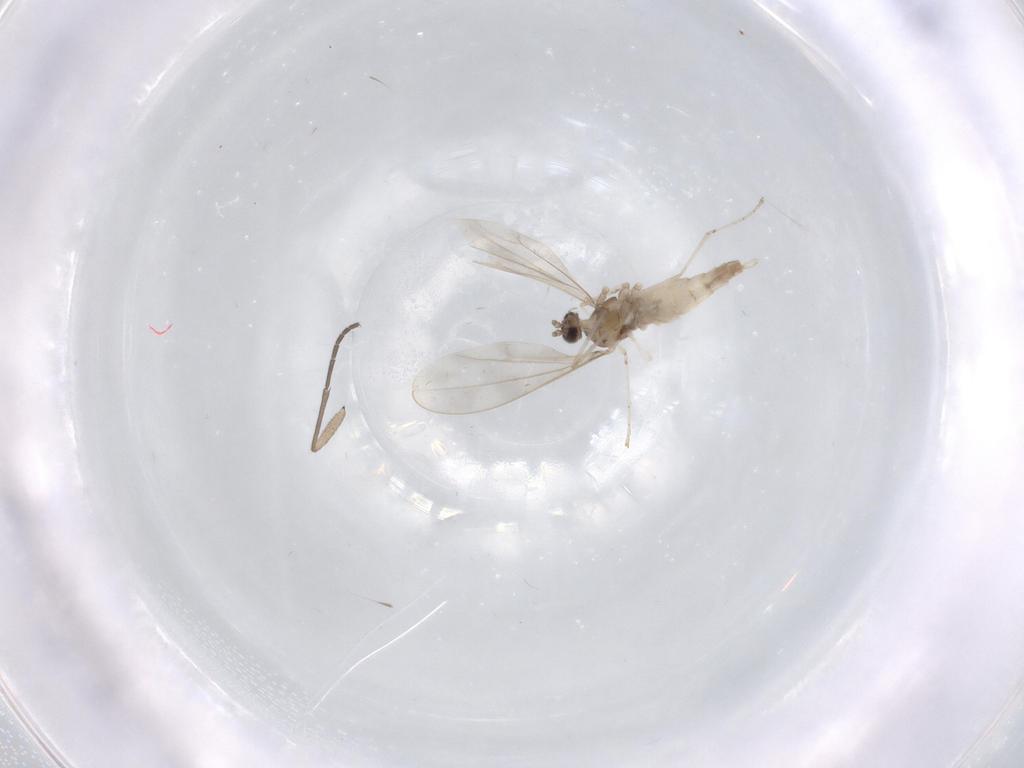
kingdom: Animalia
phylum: Arthropoda
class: Insecta
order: Diptera
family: Sciaridae
